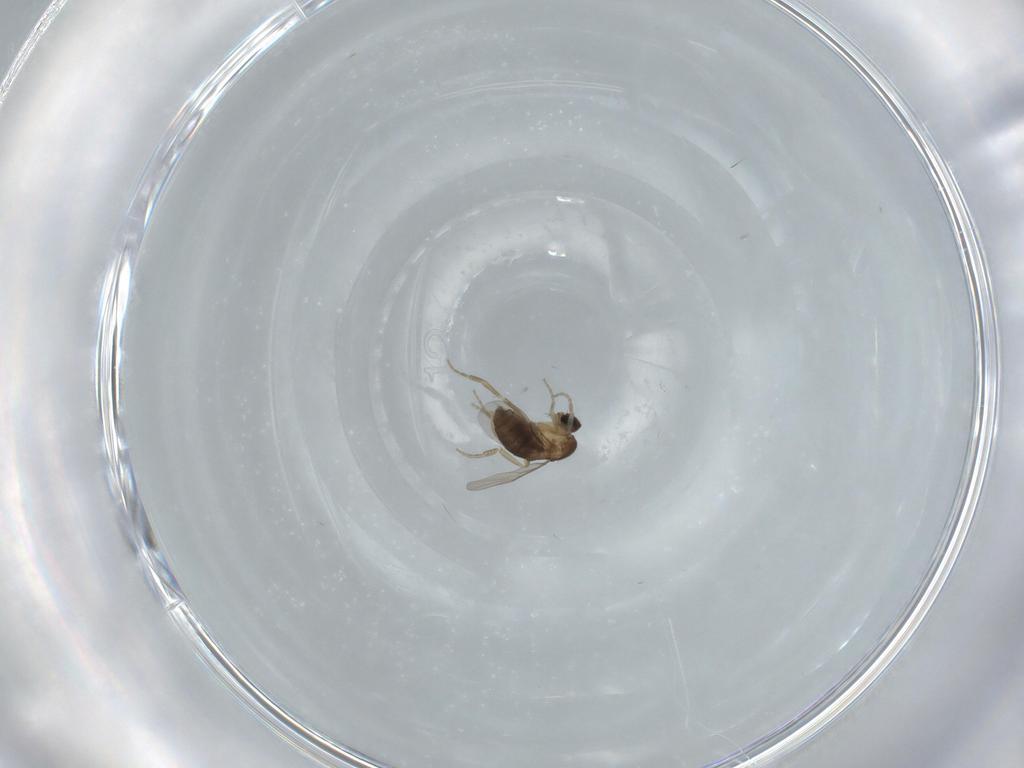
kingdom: Animalia
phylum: Arthropoda
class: Insecta
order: Diptera
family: Phoridae
